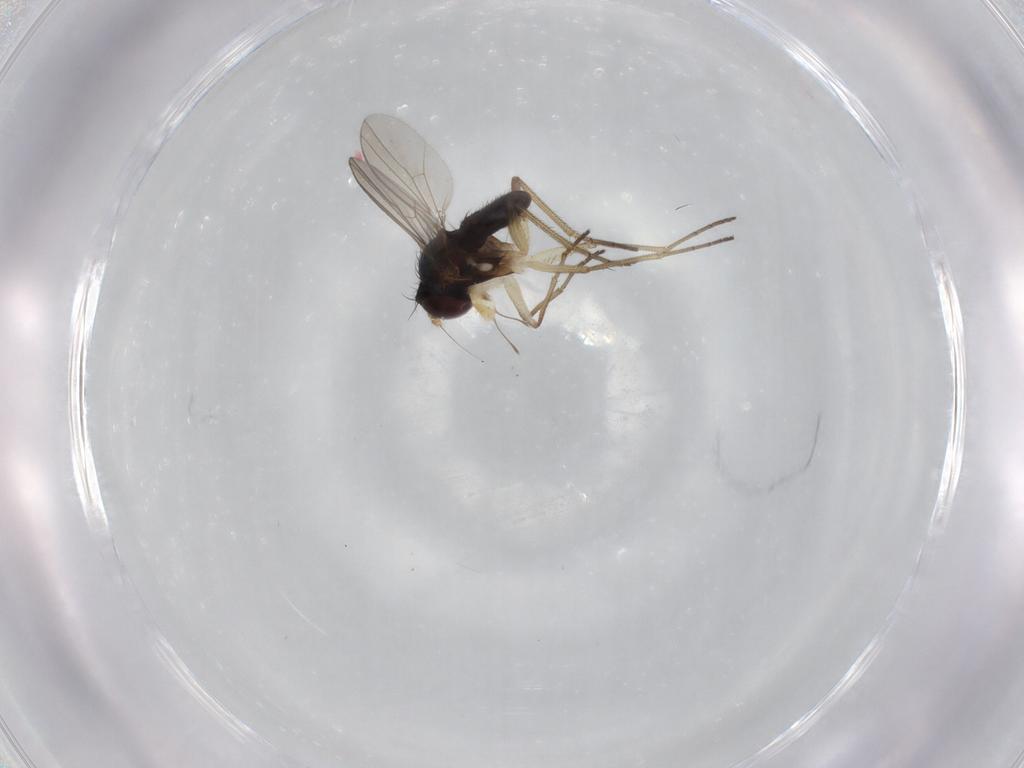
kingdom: Animalia
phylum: Arthropoda
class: Insecta
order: Diptera
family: Dolichopodidae
